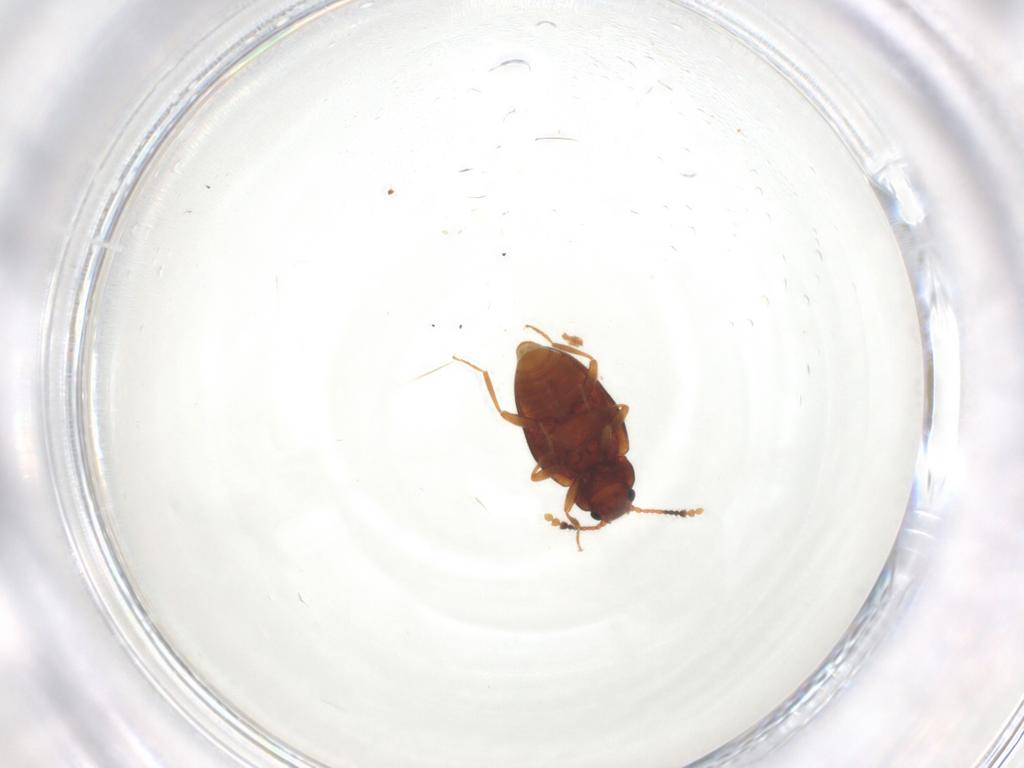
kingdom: Animalia
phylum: Arthropoda
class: Insecta
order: Coleoptera
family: Erotylidae
